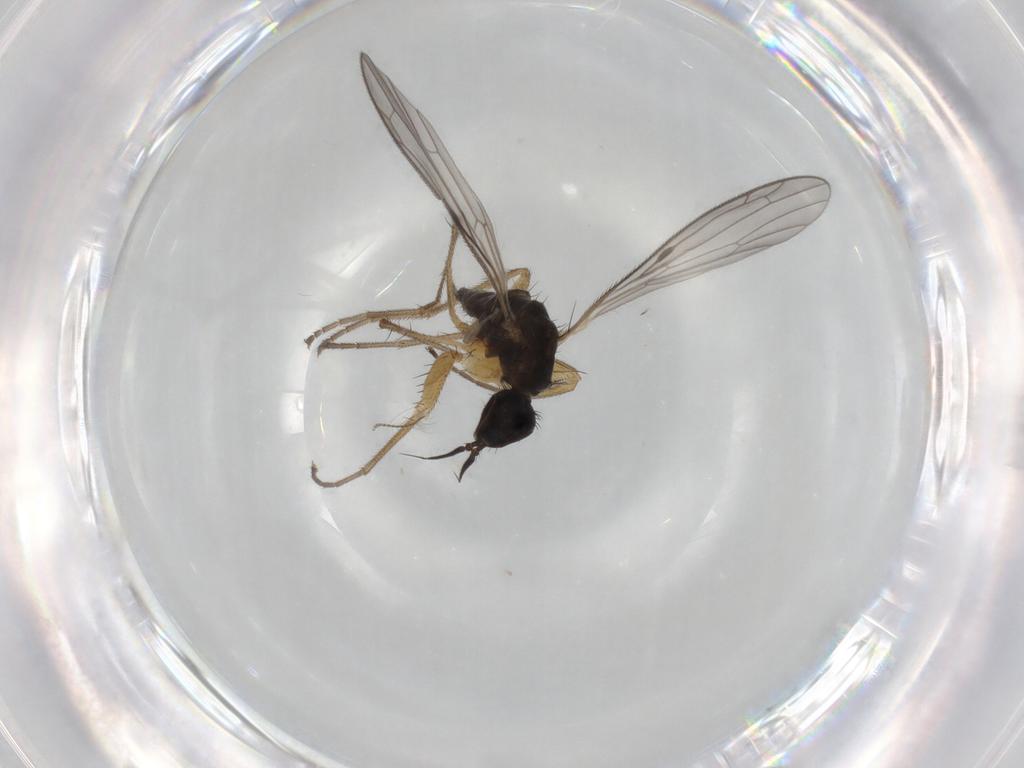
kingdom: Animalia
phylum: Arthropoda
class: Insecta
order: Diptera
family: Empididae
